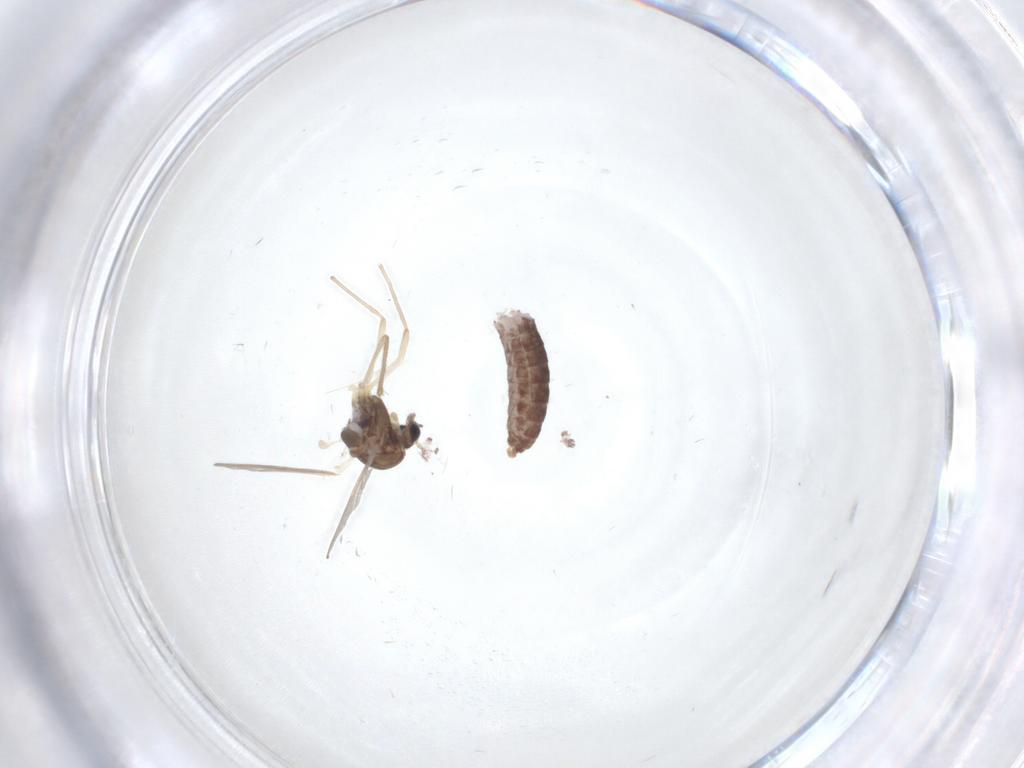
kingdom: Animalia
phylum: Arthropoda
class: Insecta
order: Diptera
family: Chironomidae
